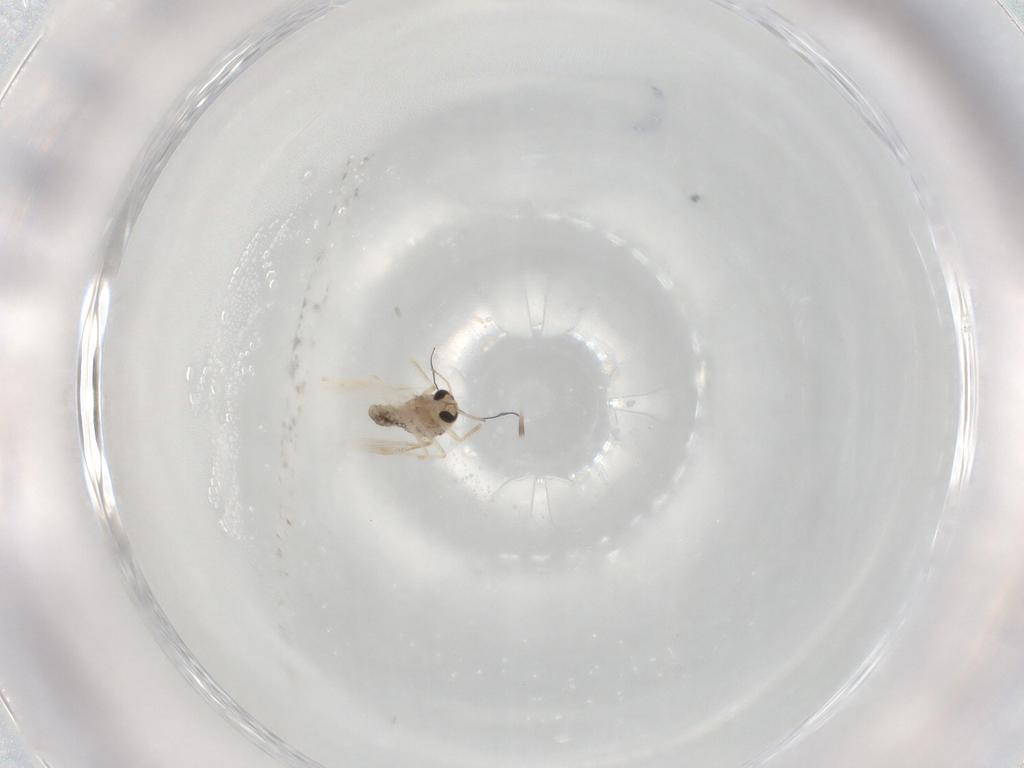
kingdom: Animalia
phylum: Arthropoda
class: Insecta
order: Diptera
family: Chironomidae
